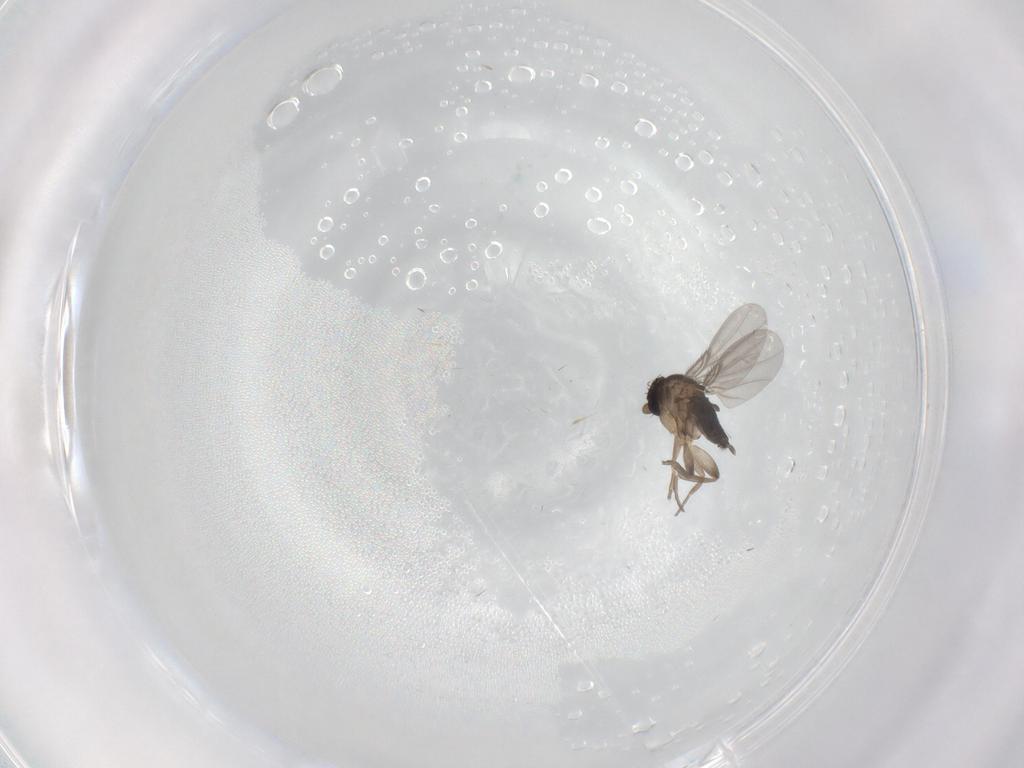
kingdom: Animalia
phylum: Arthropoda
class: Insecta
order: Diptera
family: Phoridae
